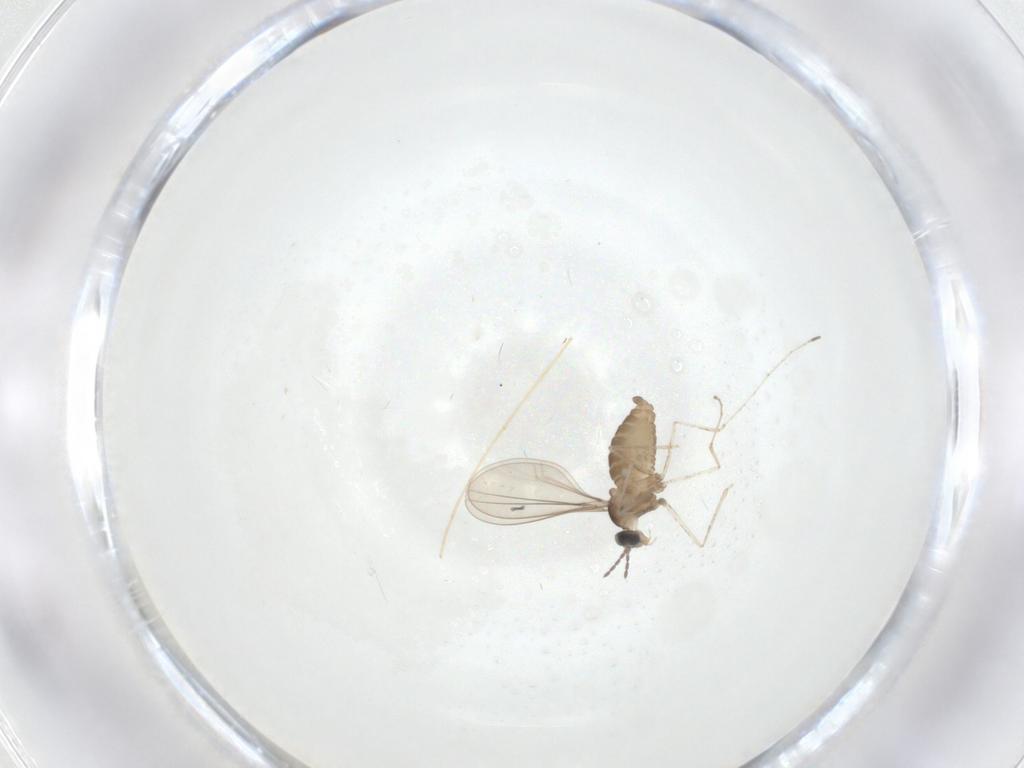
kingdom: Animalia
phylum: Arthropoda
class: Insecta
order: Diptera
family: Cecidomyiidae
